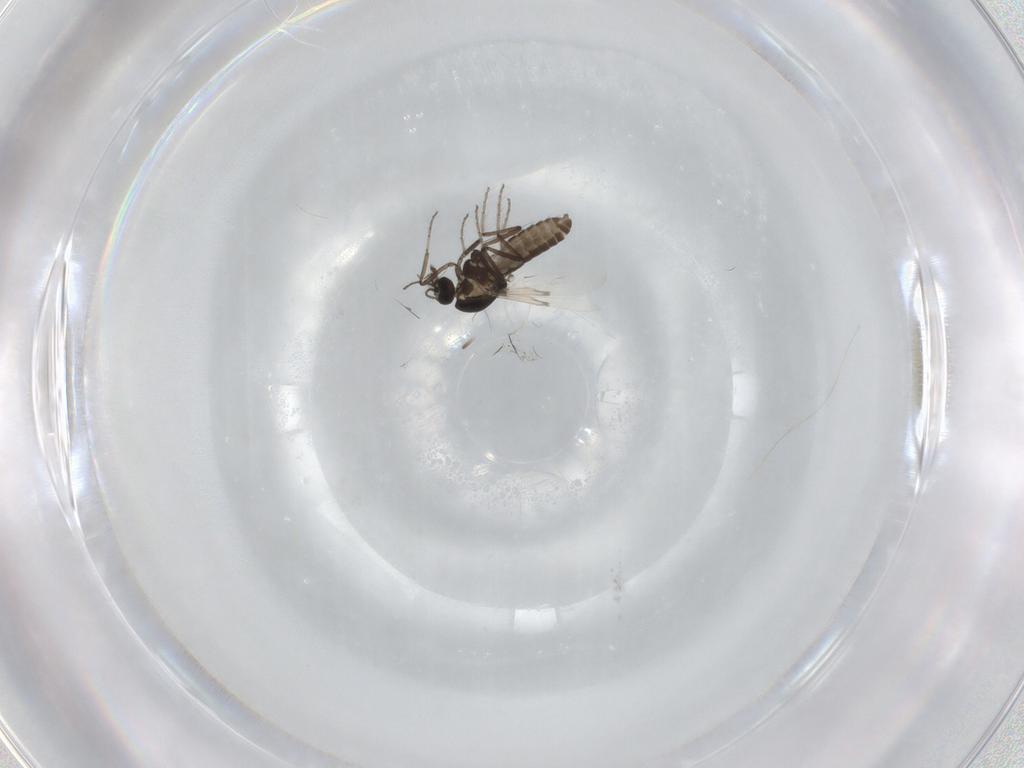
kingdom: Animalia
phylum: Arthropoda
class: Insecta
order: Diptera
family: Ceratopogonidae
